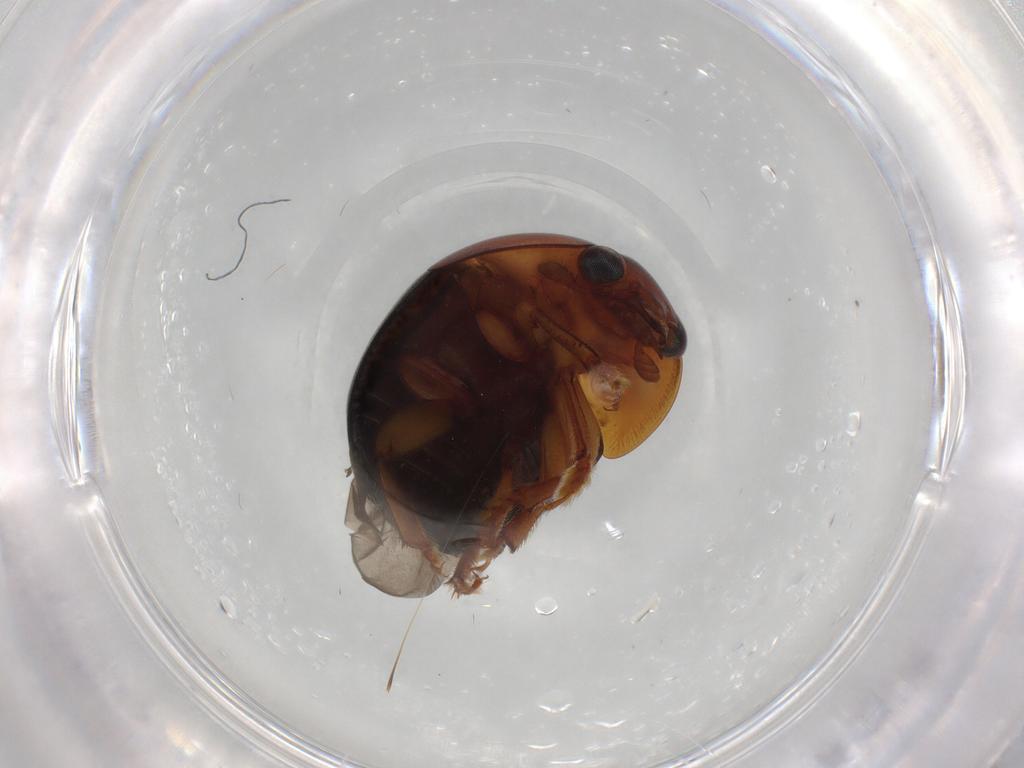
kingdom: Animalia
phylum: Arthropoda
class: Insecta
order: Coleoptera
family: Nitidulidae
